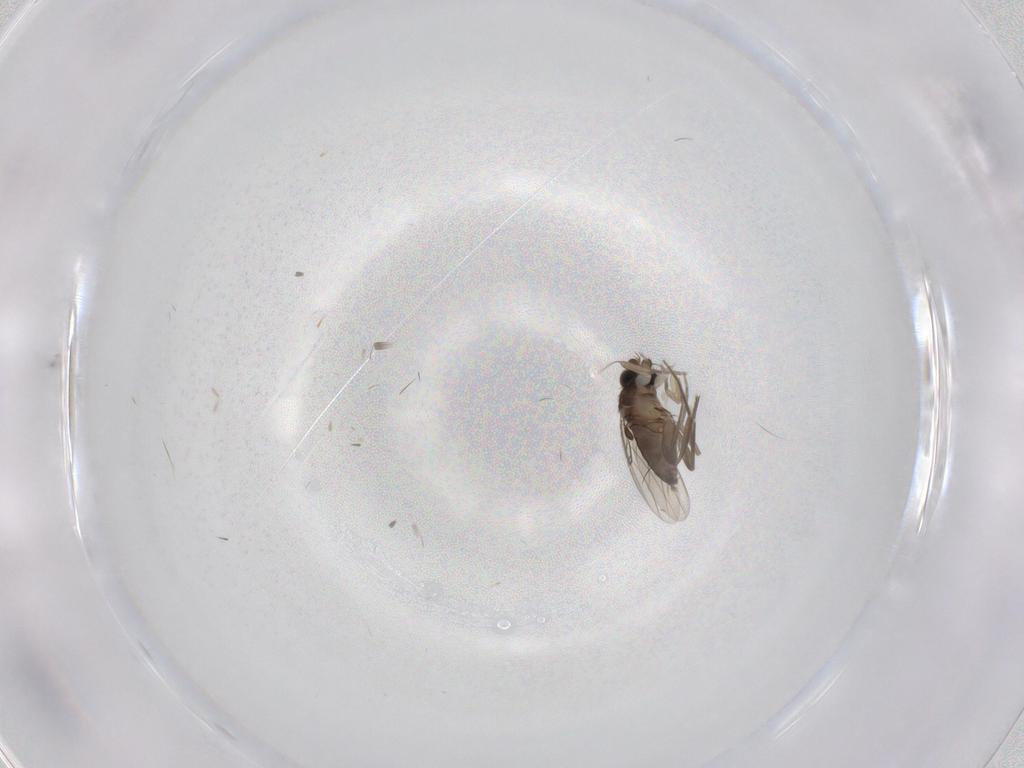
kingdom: Animalia
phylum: Arthropoda
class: Insecta
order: Diptera
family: Phoridae
